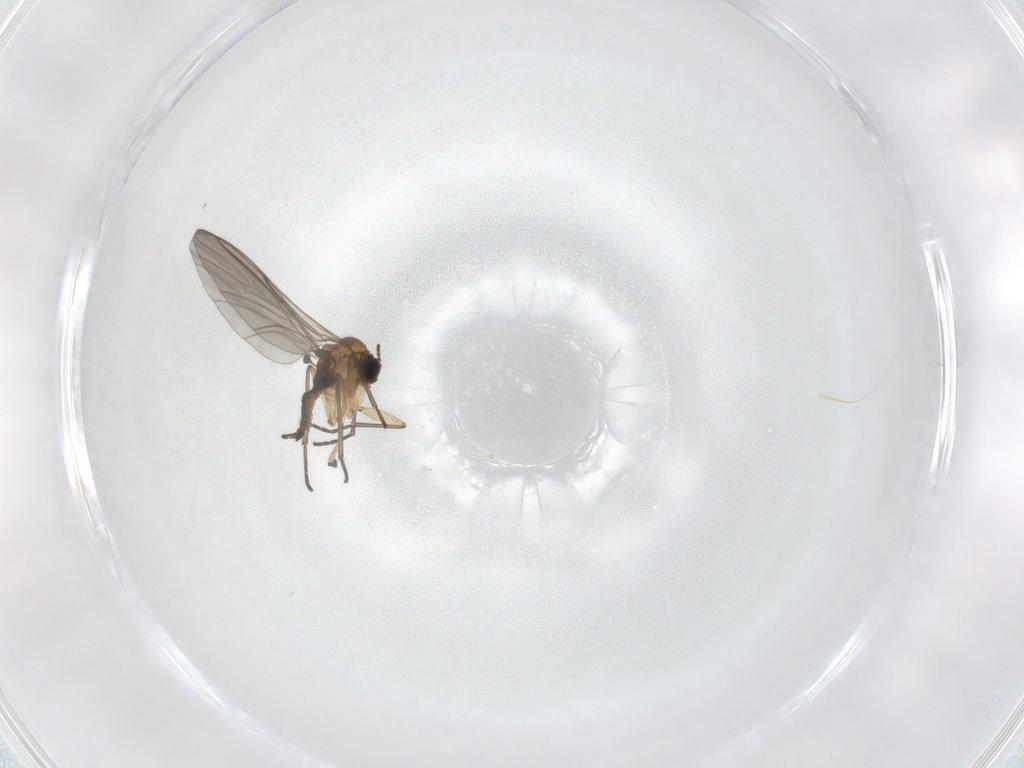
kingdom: Animalia
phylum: Arthropoda
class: Insecta
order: Diptera
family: Sciaridae
